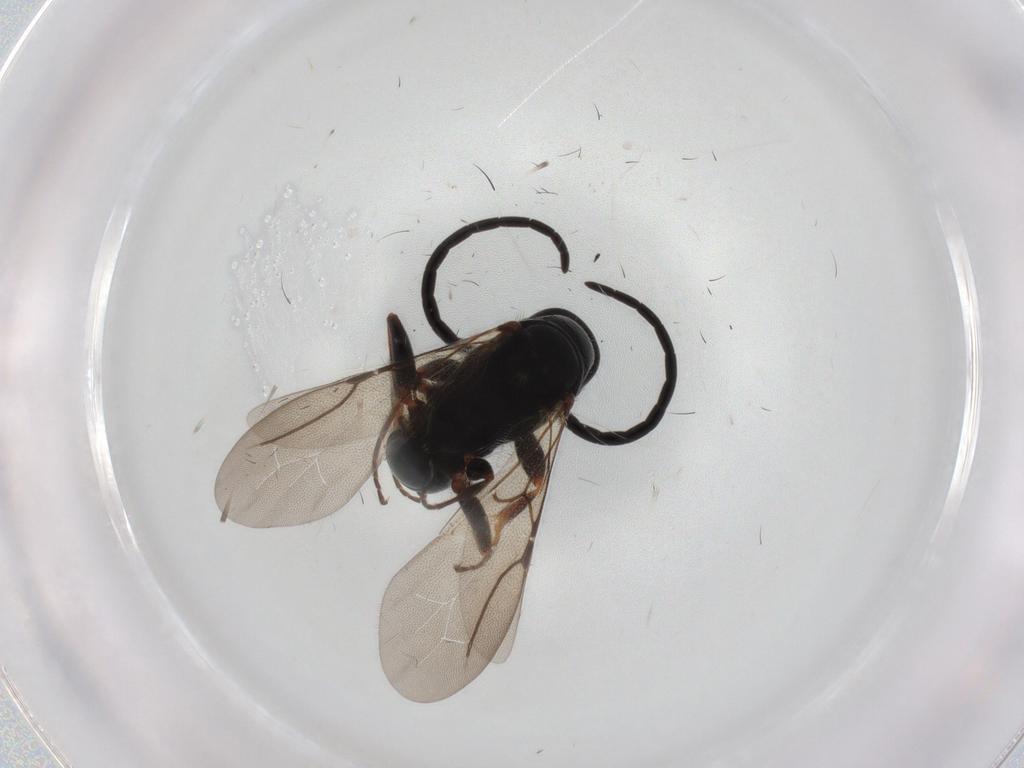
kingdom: Animalia
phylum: Arthropoda
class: Insecta
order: Hymenoptera
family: Bethylidae
